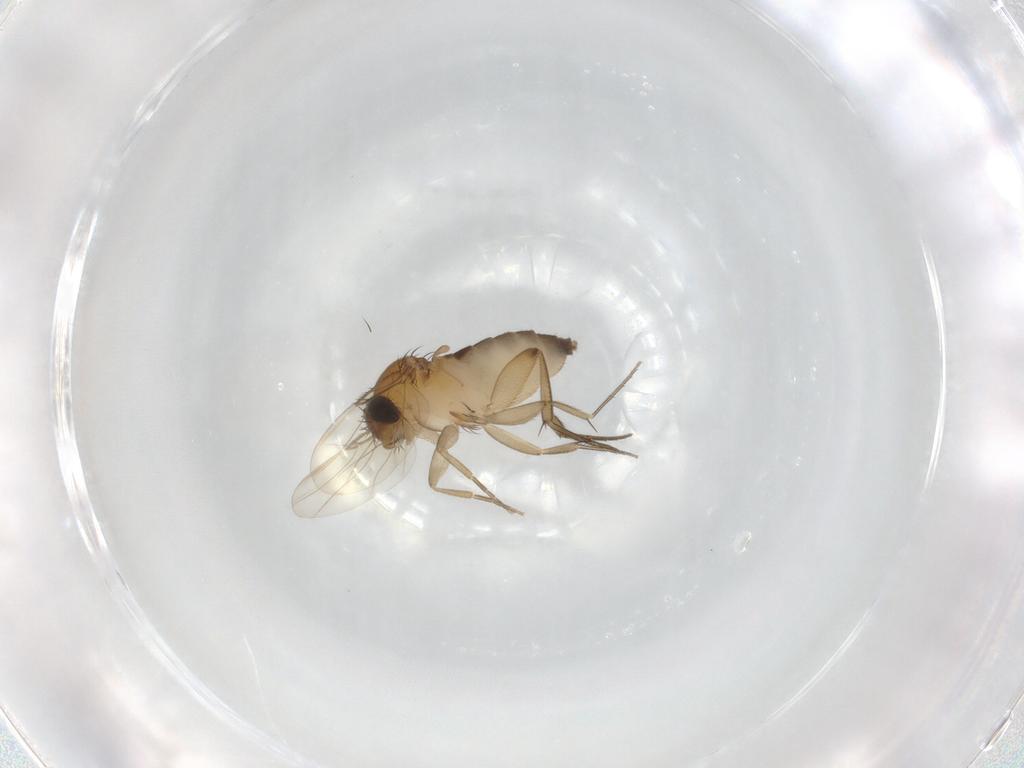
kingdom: Animalia
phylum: Arthropoda
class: Insecta
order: Diptera
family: Phoridae
